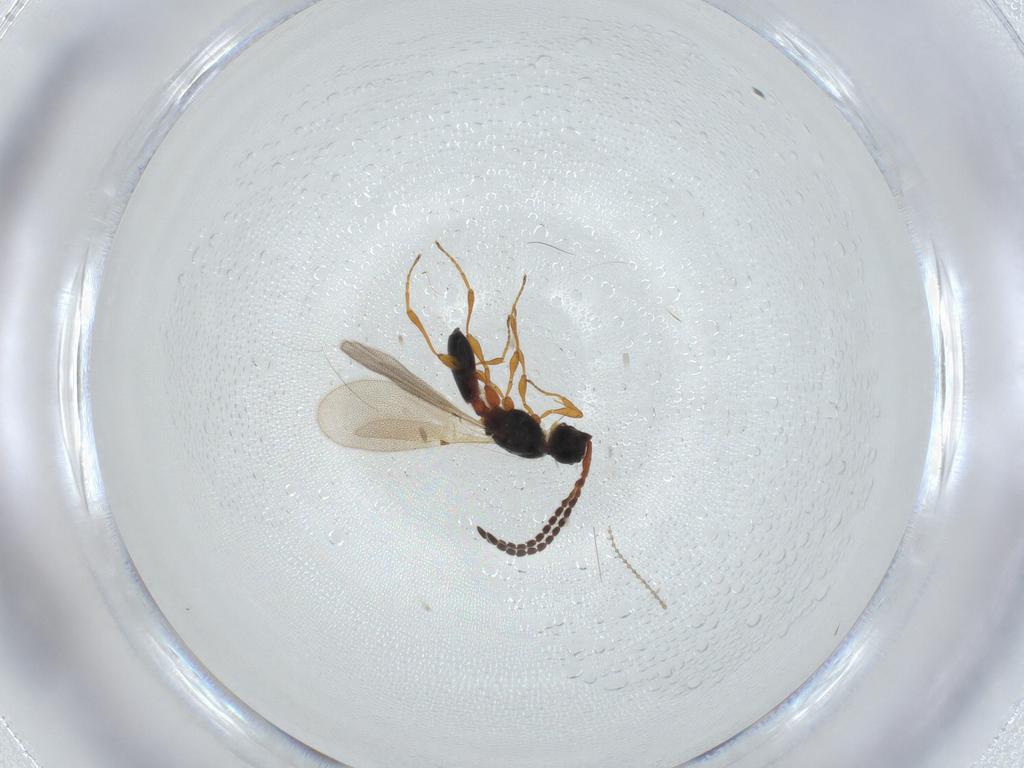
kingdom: Animalia
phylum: Arthropoda
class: Insecta
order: Hymenoptera
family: Diapriidae
